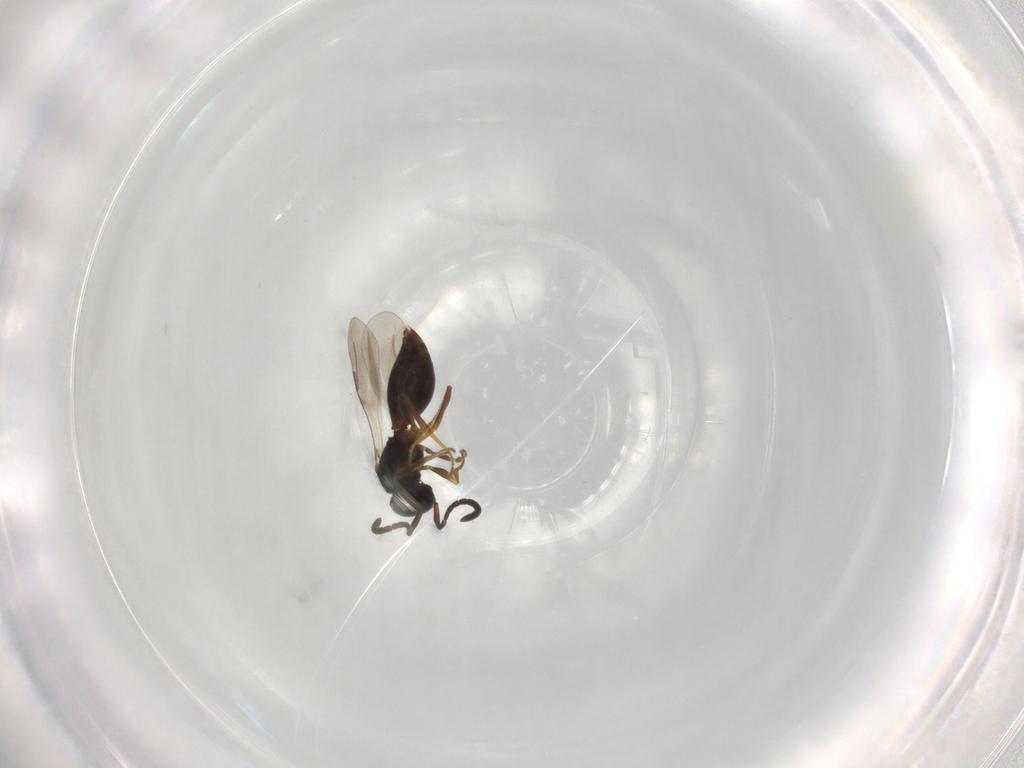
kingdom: Animalia
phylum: Arthropoda
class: Insecta
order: Hymenoptera
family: Megaspilidae
